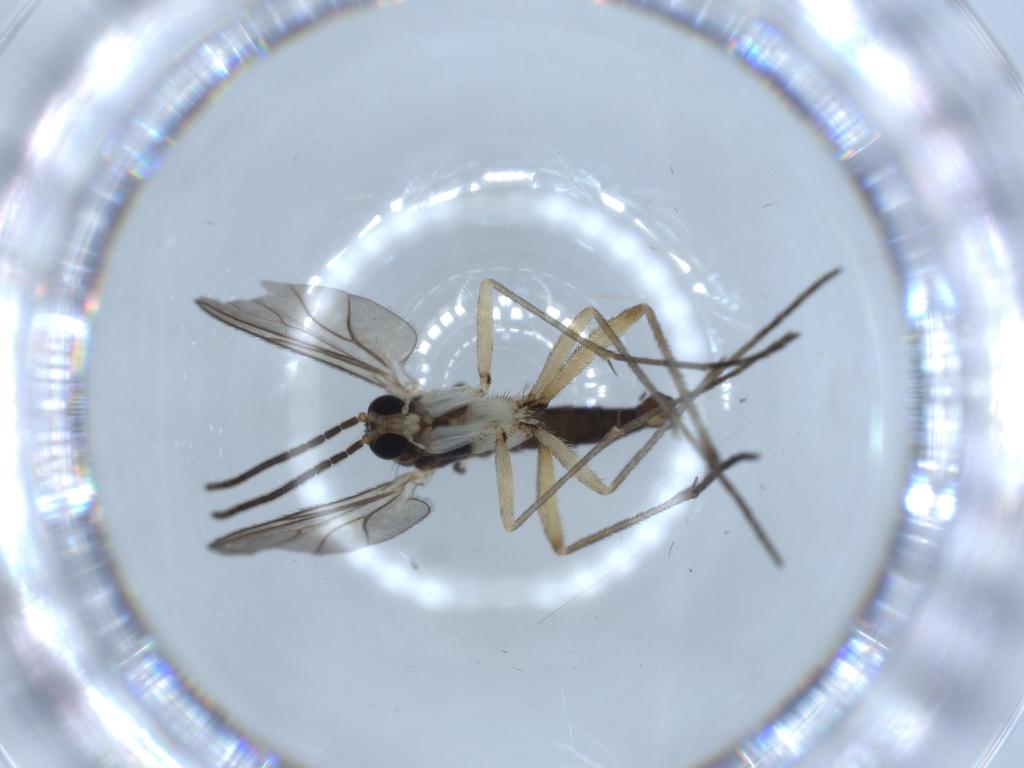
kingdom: Animalia
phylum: Arthropoda
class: Insecta
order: Diptera
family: Sciaridae
